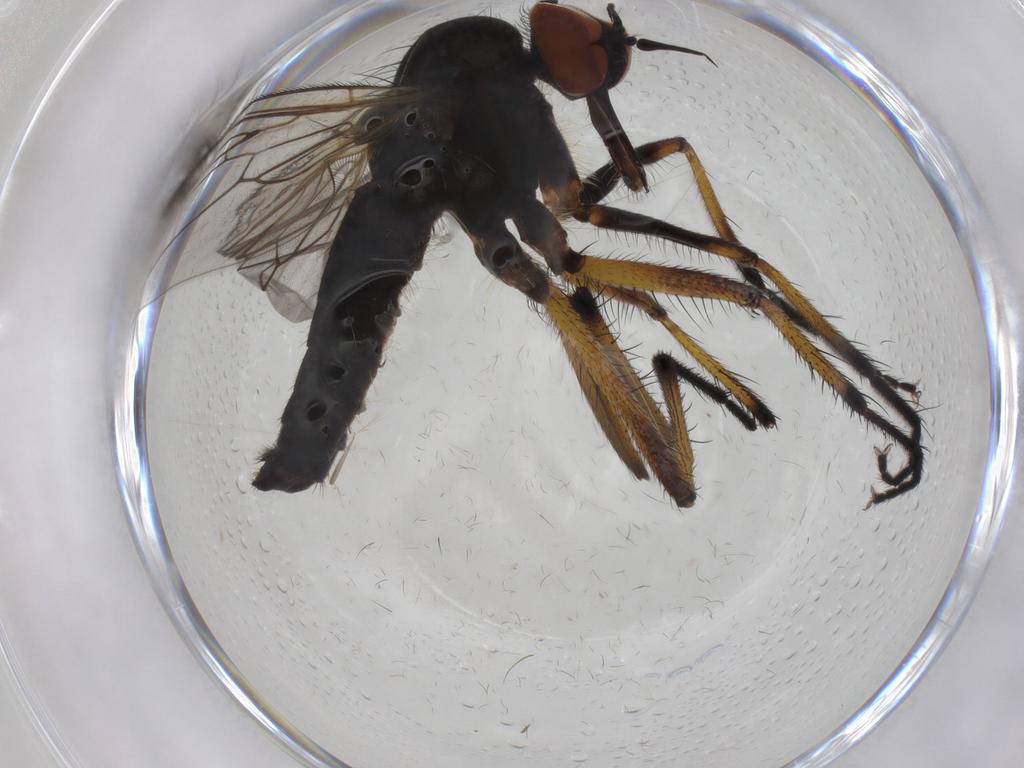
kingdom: Animalia
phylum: Arthropoda
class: Insecta
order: Diptera
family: Empididae
